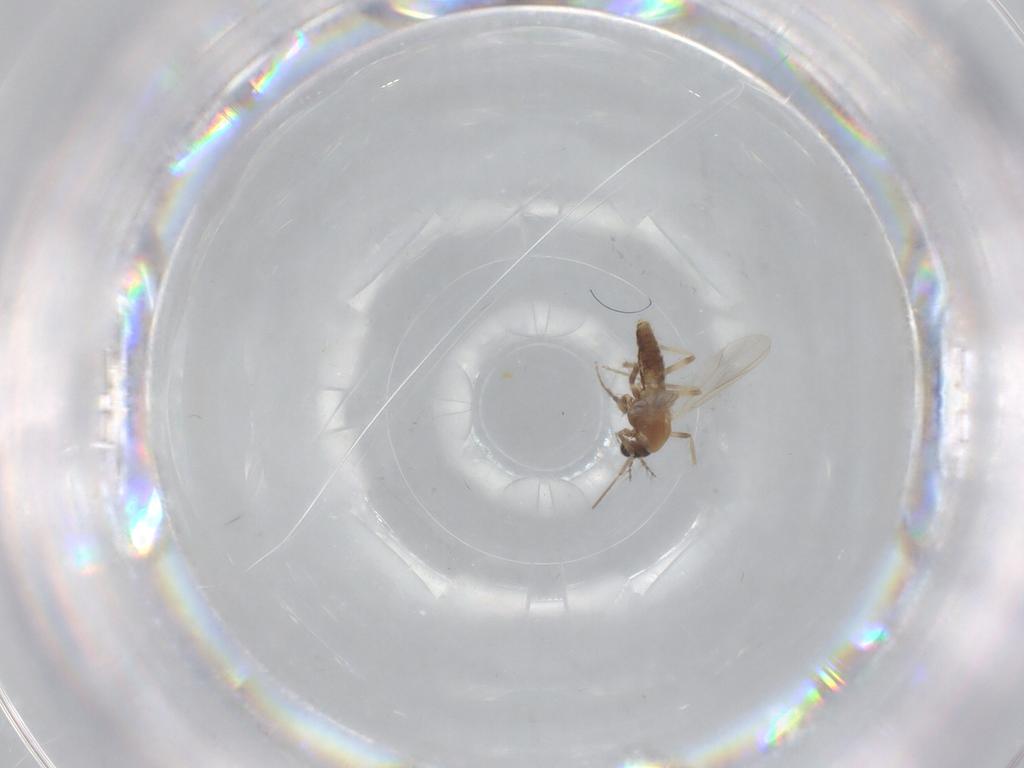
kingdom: Animalia
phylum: Arthropoda
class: Insecta
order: Diptera
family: Chironomidae
